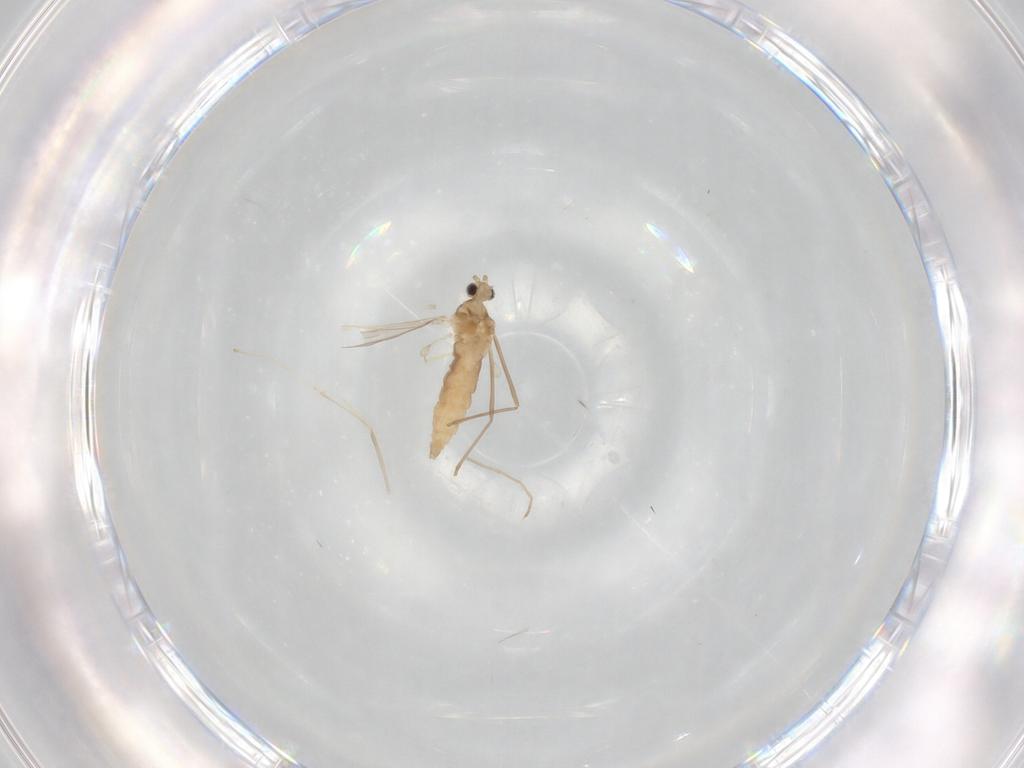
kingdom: Animalia
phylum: Arthropoda
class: Insecta
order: Diptera
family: Cecidomyiidae
